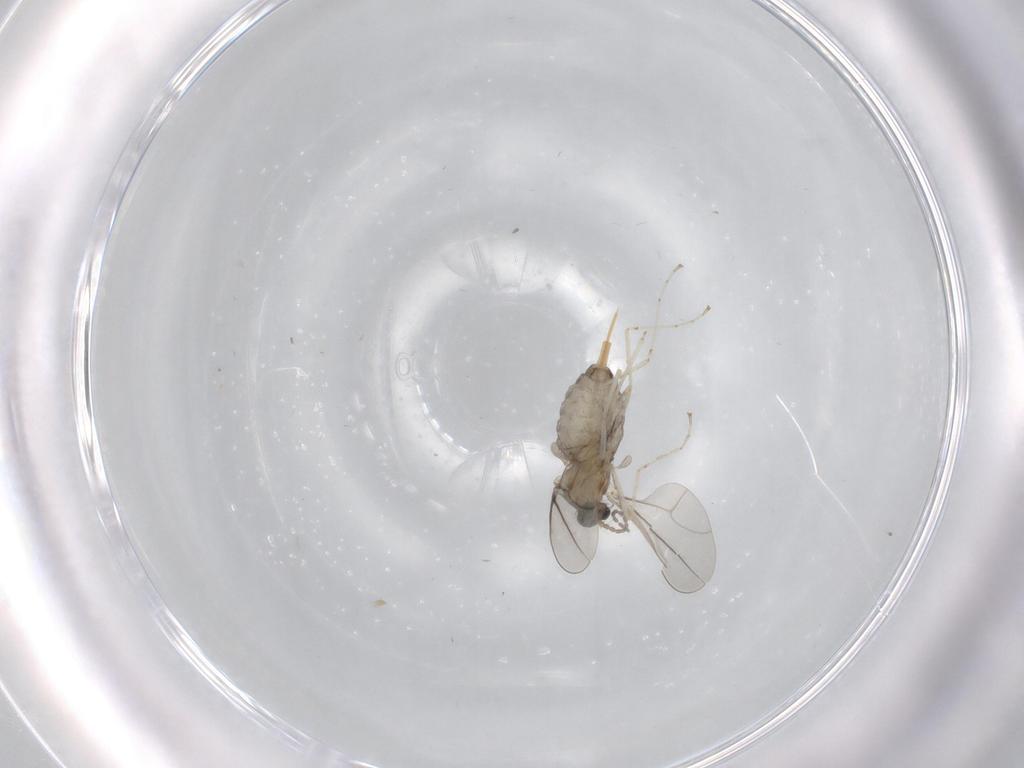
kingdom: Animalia
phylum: Arthropoda
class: Insecta
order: Diptera
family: Cecidomyiidae
